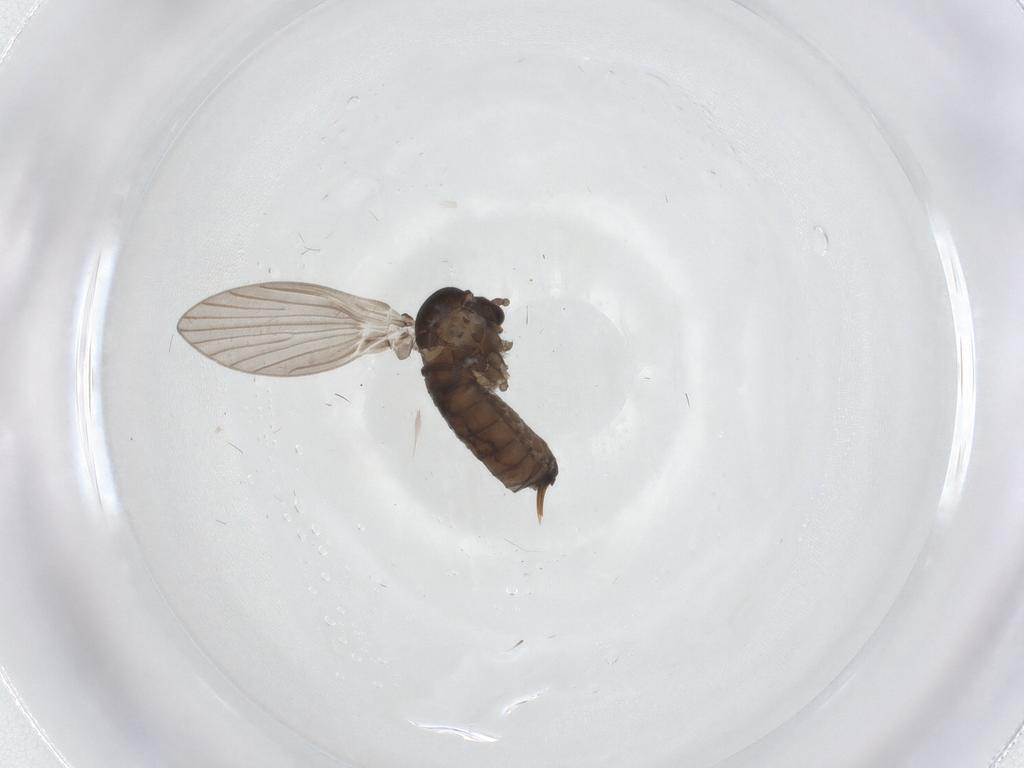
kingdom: Animalia
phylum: Arthropoda
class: Insecta
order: Diptera
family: Psychodidae
